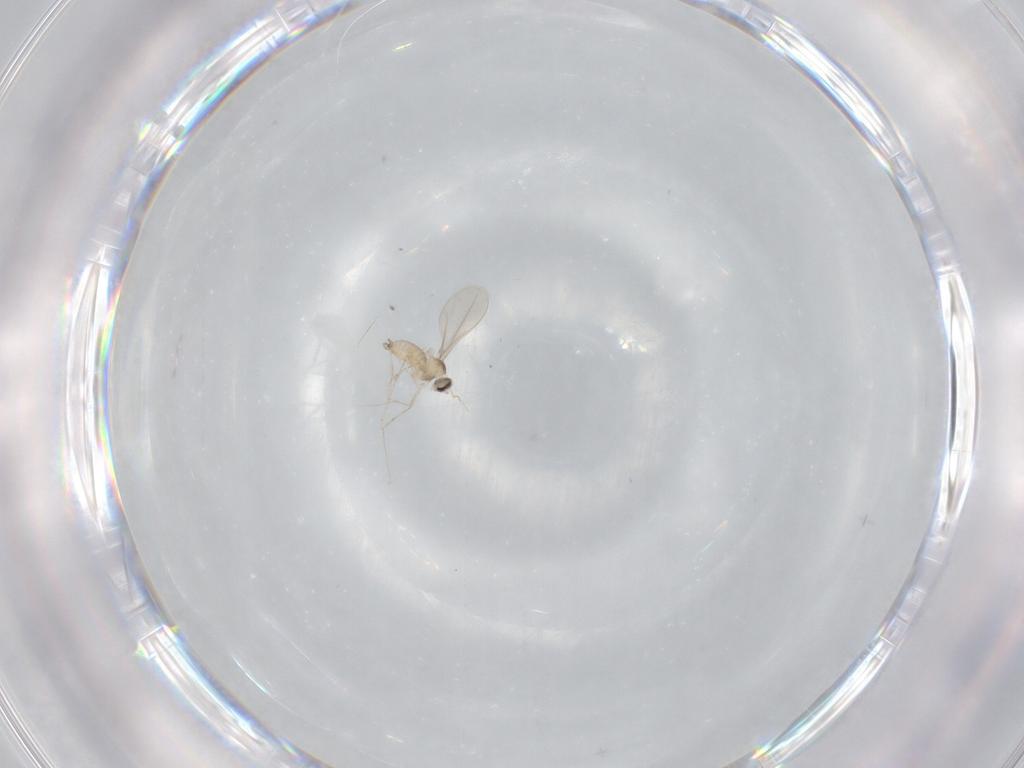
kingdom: Animalia
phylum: Arthropoda
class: Insecta
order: Diptera
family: Cecidomyiidae
